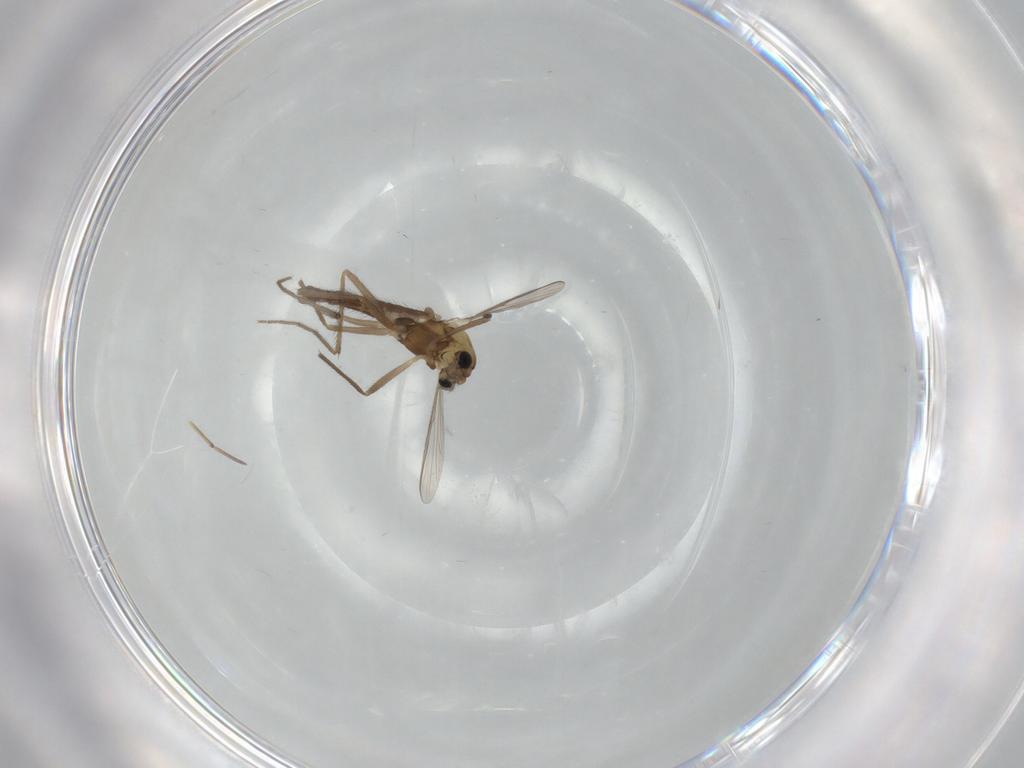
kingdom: Animalia
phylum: Arthropoda
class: Insecta
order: Diptera
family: Chironomidae
